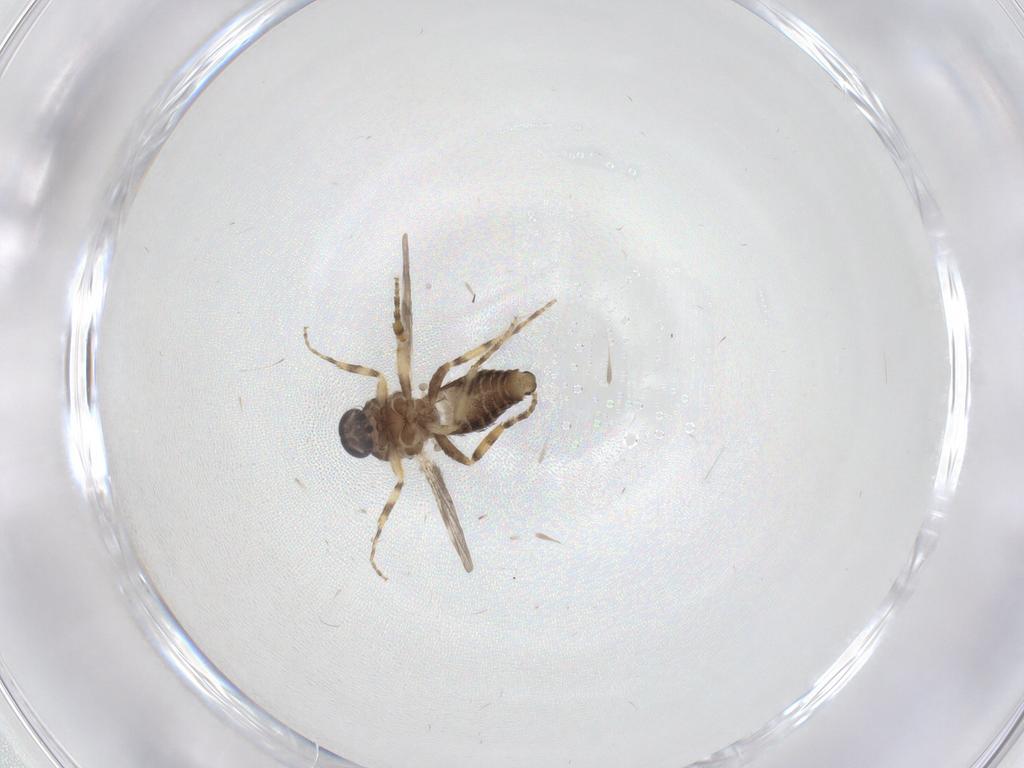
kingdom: Animalia
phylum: Arthropoda
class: Insecta
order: Diptera
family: Ceratopogonidae
